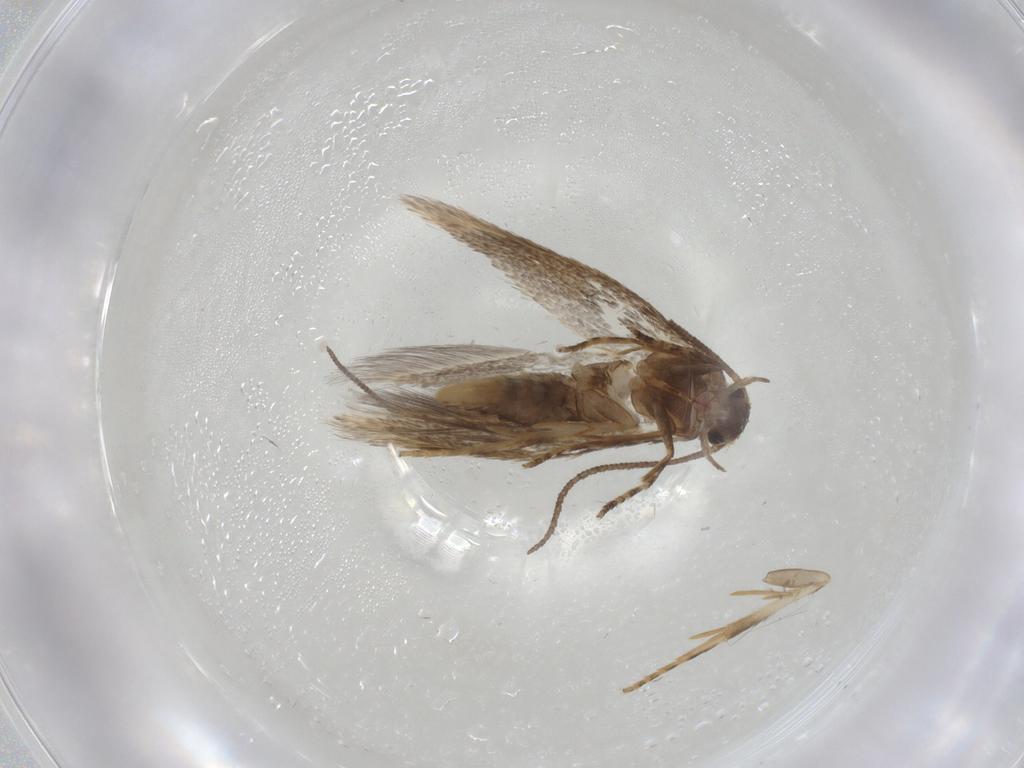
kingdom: Animalia
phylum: Arthropoda
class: Insecta
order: Lepidoptera
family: Elachistidae
